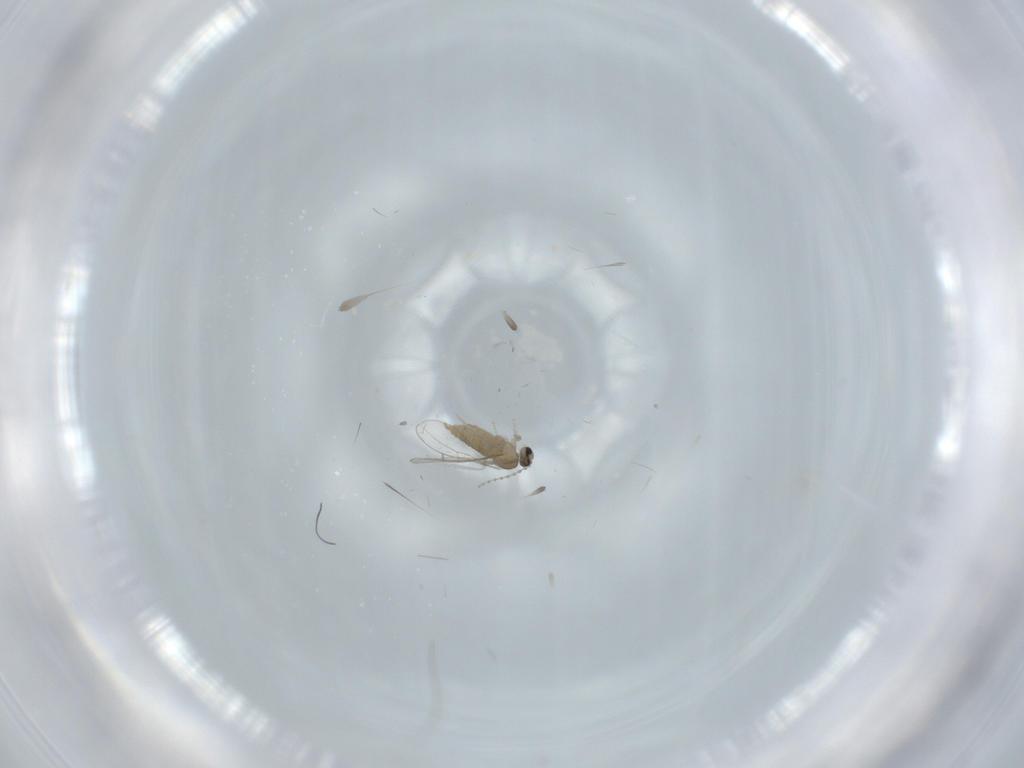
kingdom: Animalia
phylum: Arthropoda
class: Insecta
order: Diptera
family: Cecidomyiidae
